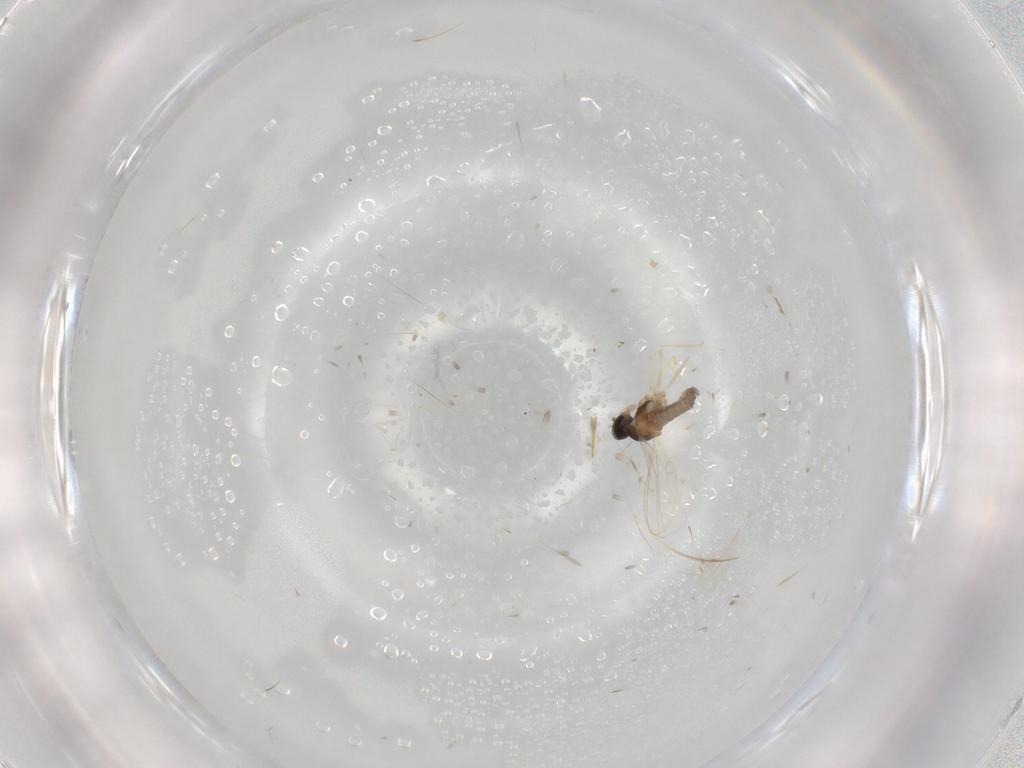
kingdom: Animalia
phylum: Arthropoda
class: Insecta
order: Diptera
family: Cecidomyiidae
